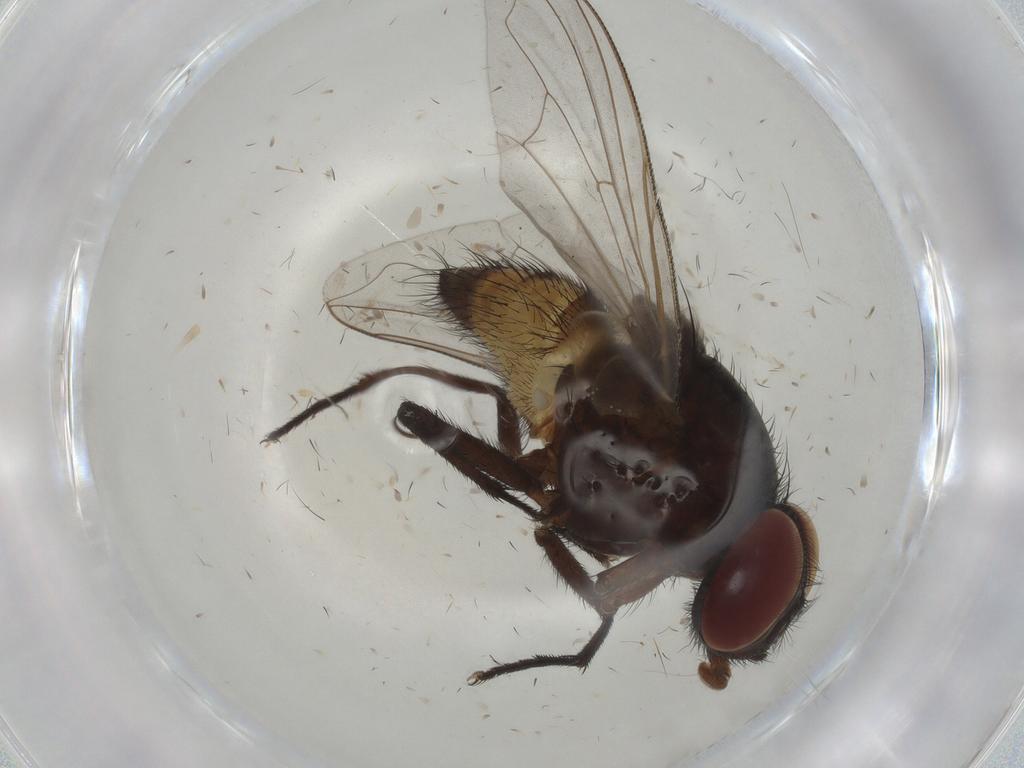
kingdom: Animalia
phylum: Arthropoda
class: Insecta
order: Diptera
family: Muscidae
